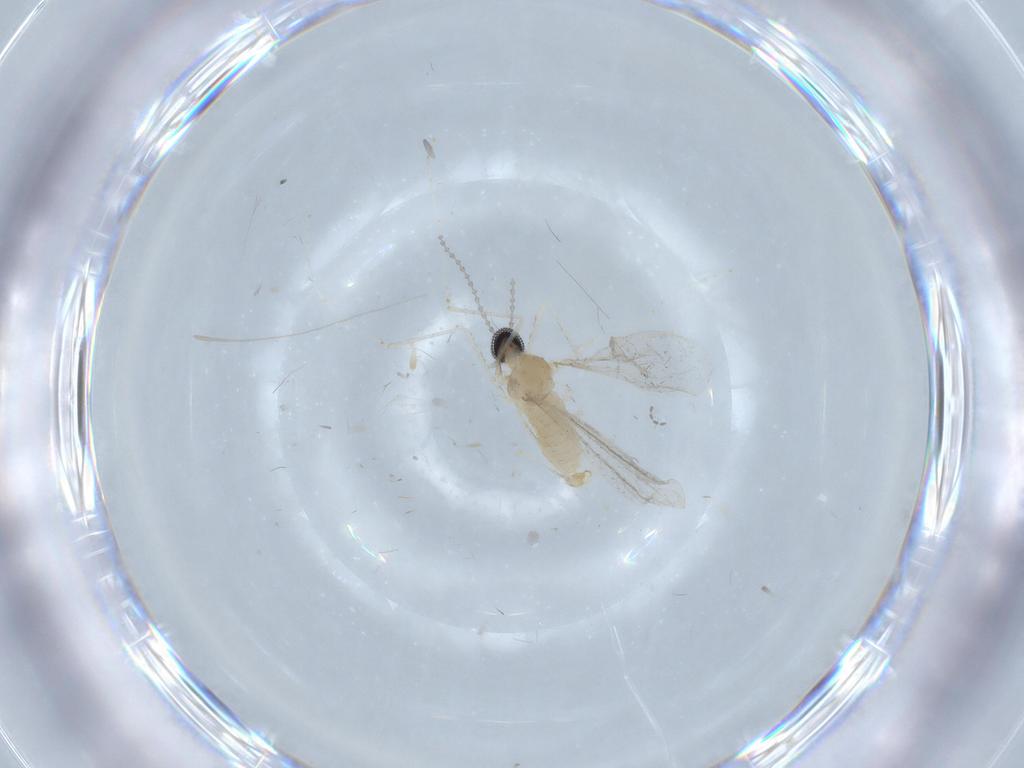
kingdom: Animalia
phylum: Arthropoda
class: Insecta
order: Diptera
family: Cecidomyiidae
